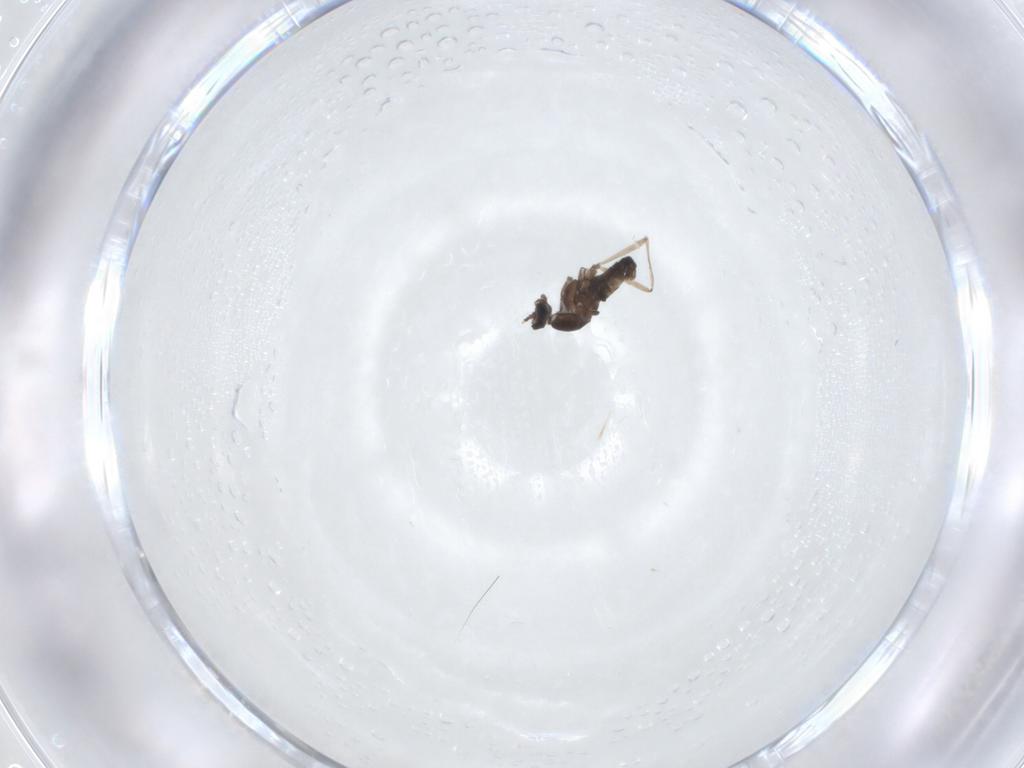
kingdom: Animalia
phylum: Arthropoda
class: Insecta
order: Diptera
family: Cecidomyiidae
